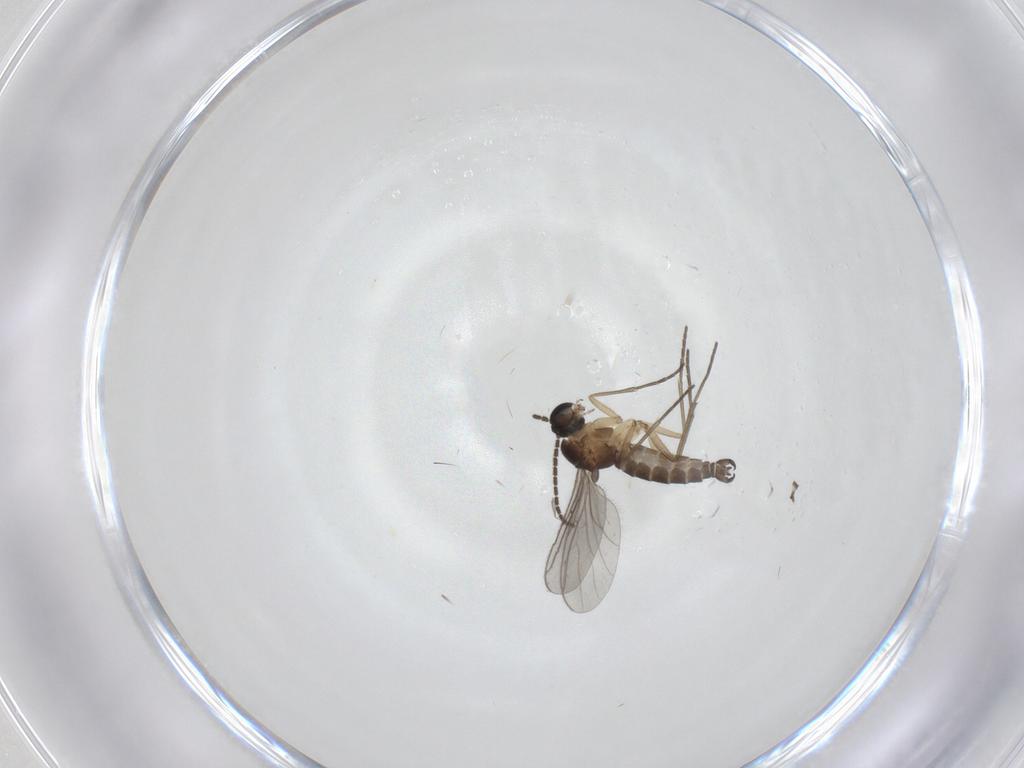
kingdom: Animalia
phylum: Arthropoda
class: Insecta
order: Diptera
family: Sciaridae
